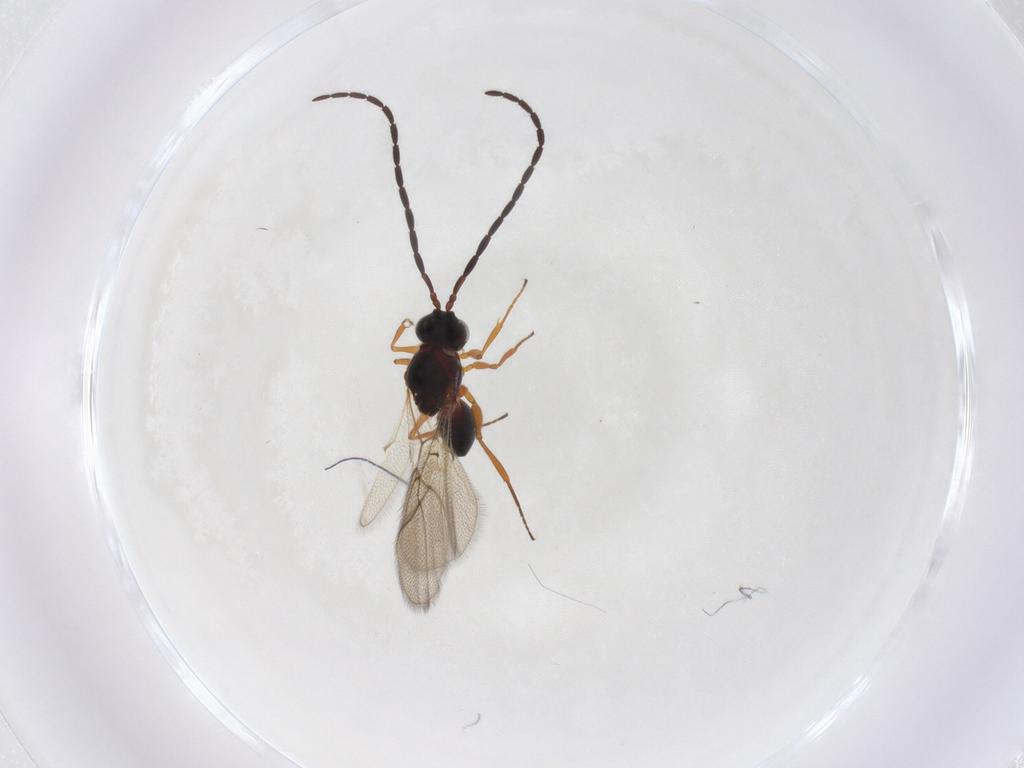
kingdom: Animalia
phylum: Arthropoda
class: Insecta
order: Hymenoptera
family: Figitidae
